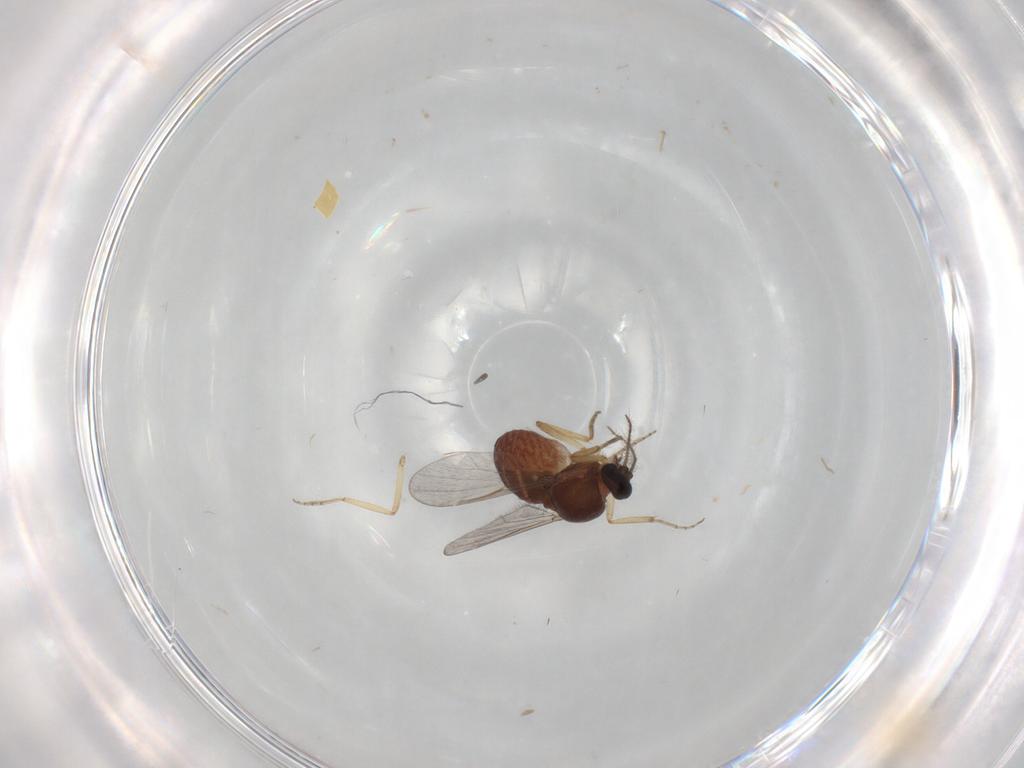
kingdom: Animalia
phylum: Arthropoda
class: Insecta
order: Diptera
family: Ceratopogonidae
